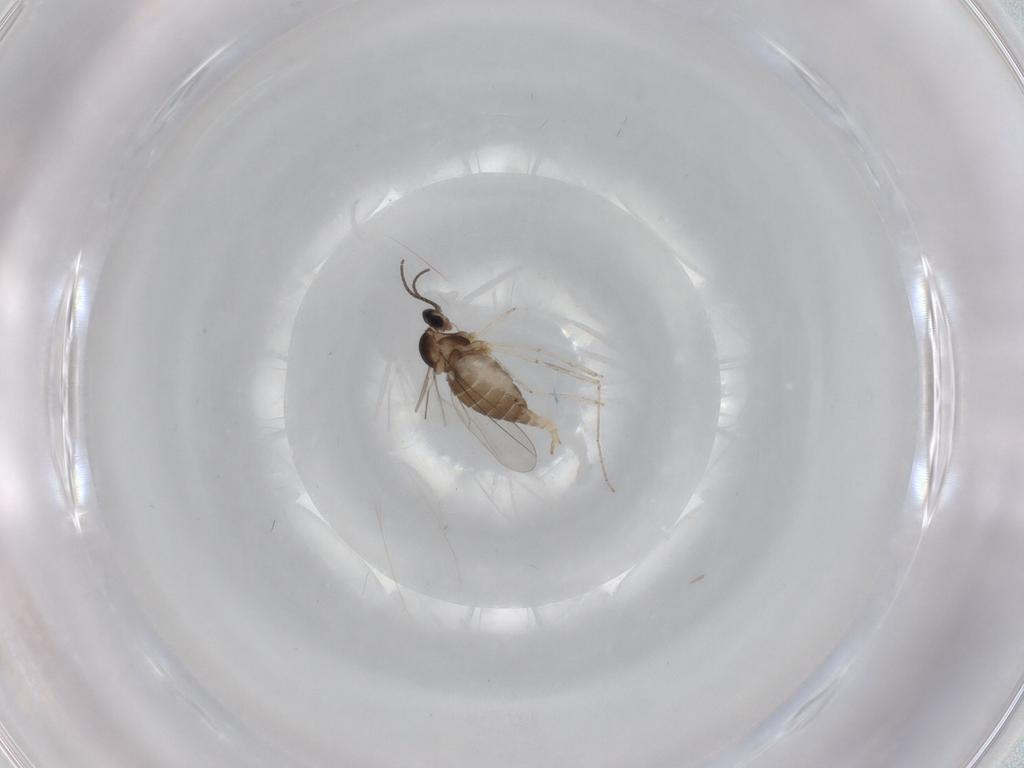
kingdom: Animalia
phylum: Arthropoda
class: Insecta
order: Diptera
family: Cecidomyiidae
